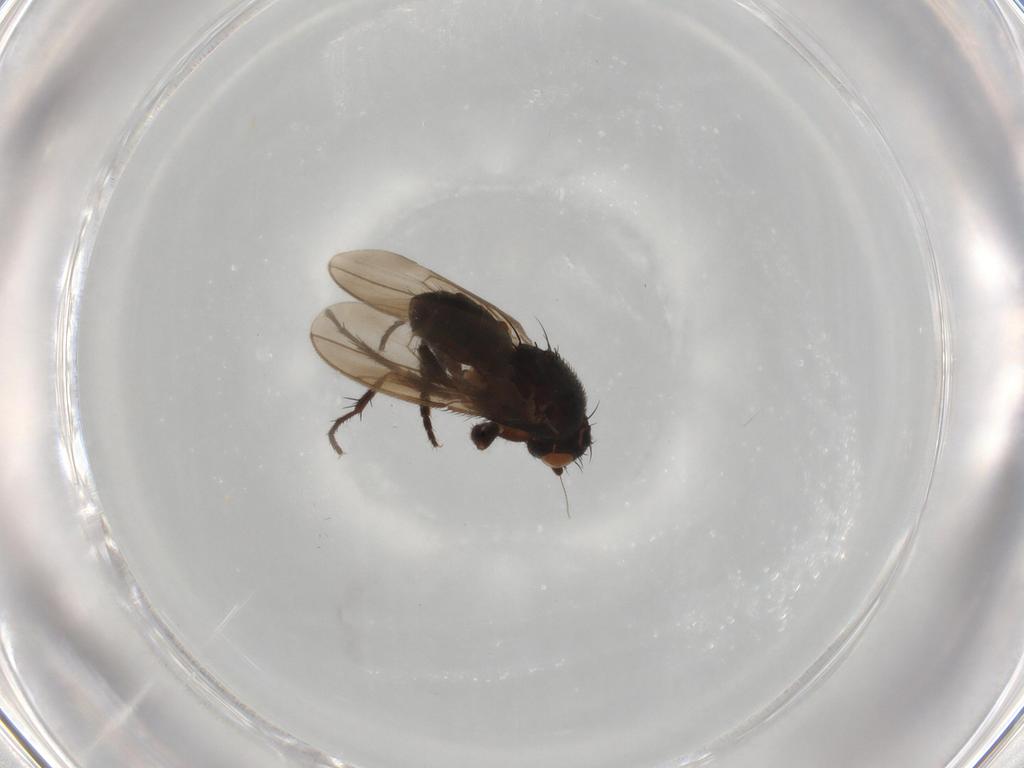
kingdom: Animalia
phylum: Arthropoda
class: Insecta
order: Diptera
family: Sphaeroceridae
